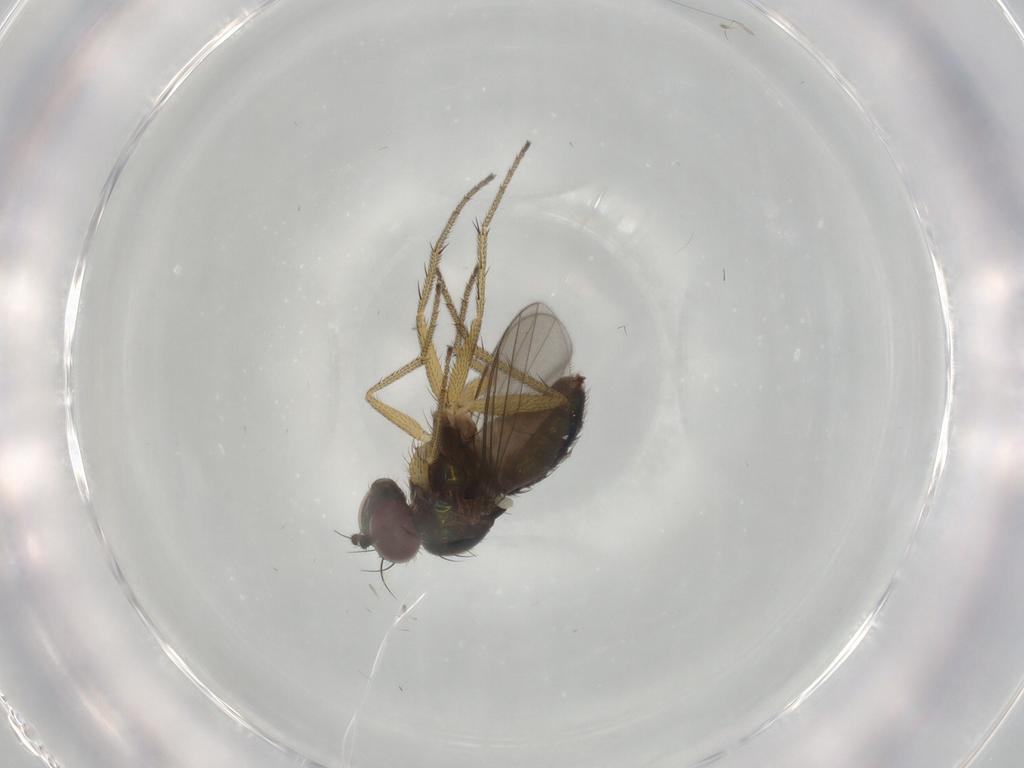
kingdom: Animalia
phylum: Arthropoda
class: Insecta
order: Diptera
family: Dolichopodidae
